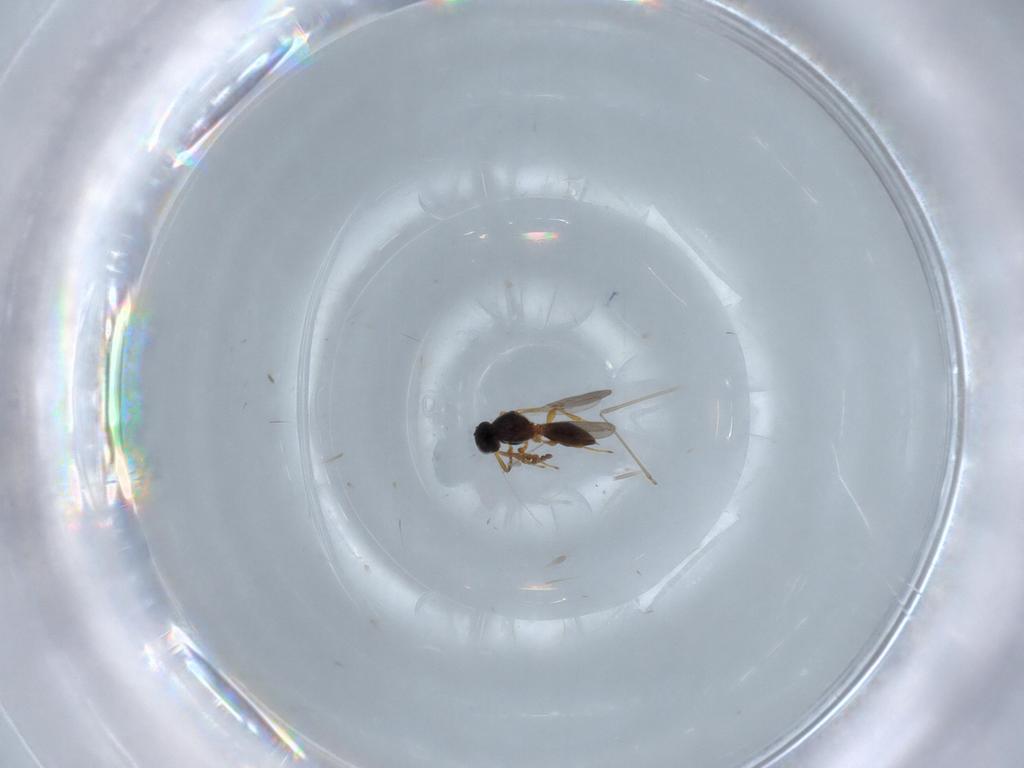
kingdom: Animalia
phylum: Arthropoda
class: Insecta
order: Hymenoptera
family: Platygastridae
